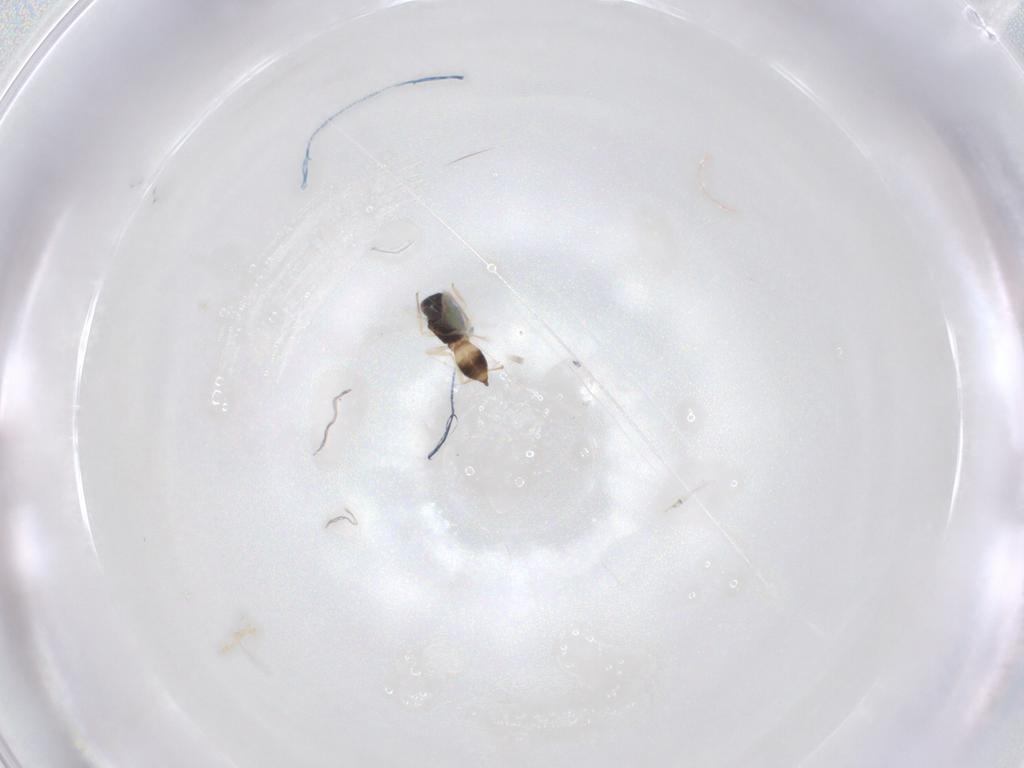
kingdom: Animalia
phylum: Arthropoda
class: Insecta
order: Hymenoptera
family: Eulophidae
